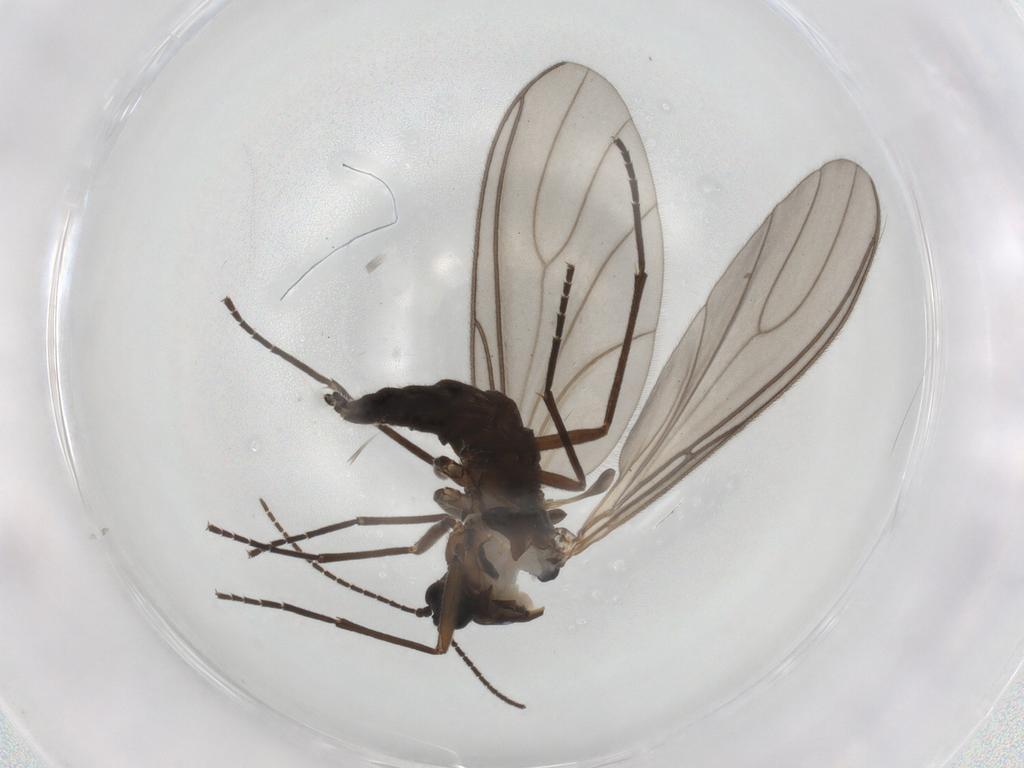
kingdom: Animalia
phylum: Arthropoda
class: Insecta
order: Diptera
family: Sciaridae
